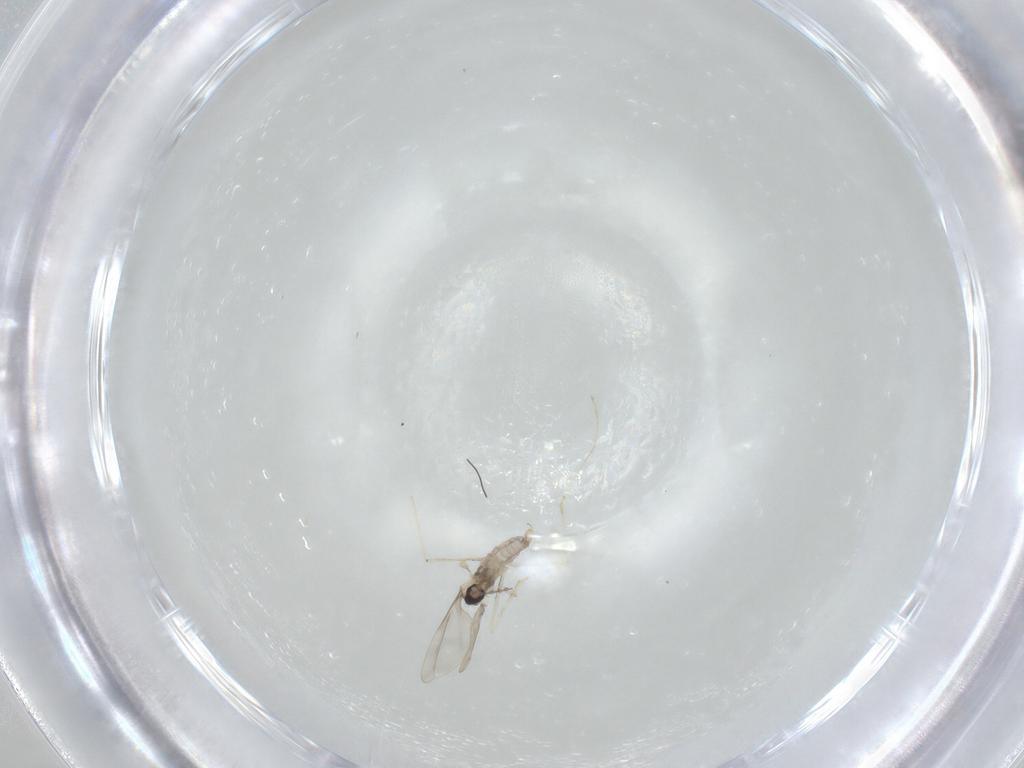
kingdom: Animalia
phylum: Arthropoda
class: Insecta
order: Diptera
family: Cecidomyiidae
